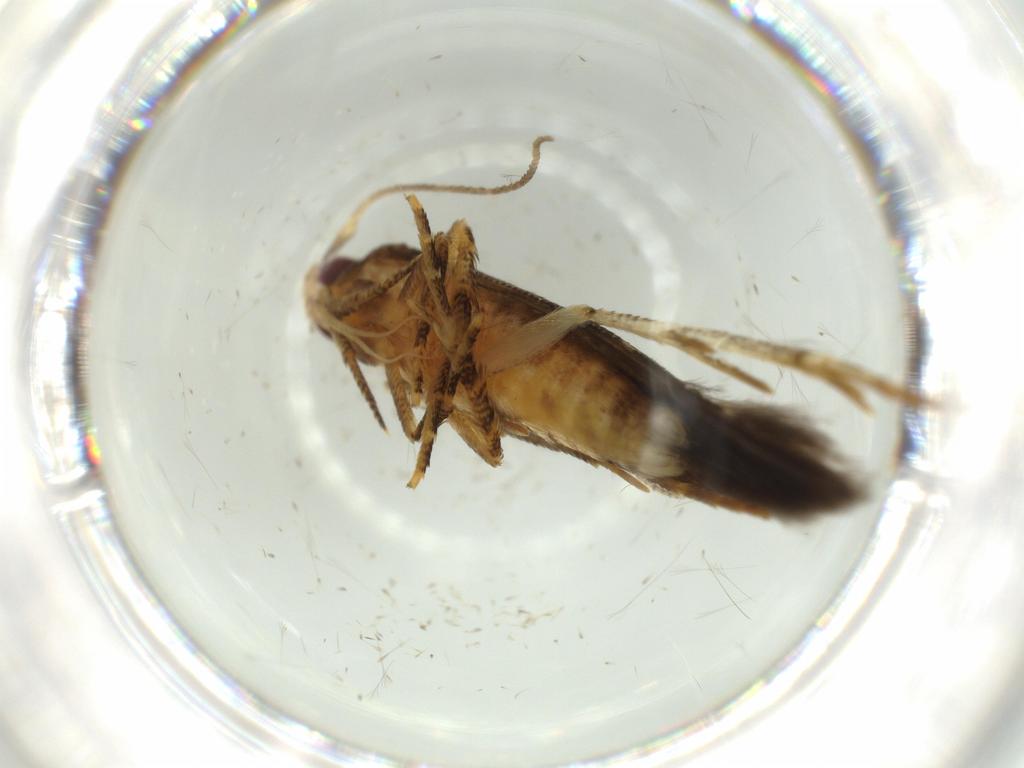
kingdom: Animalia
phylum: Arthropoda
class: Insecta
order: Lepidoptera
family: Cosmopterigidae
